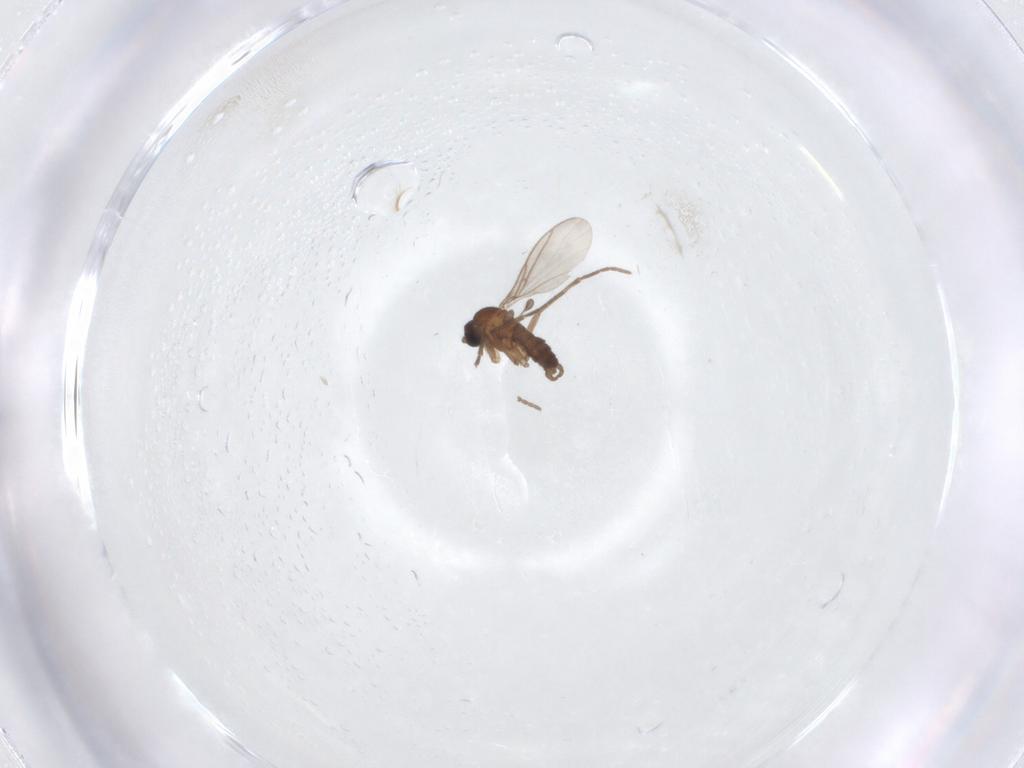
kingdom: Animalia
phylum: Arthropoda
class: Insecta
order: Diptera
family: Cecidomyiidae
